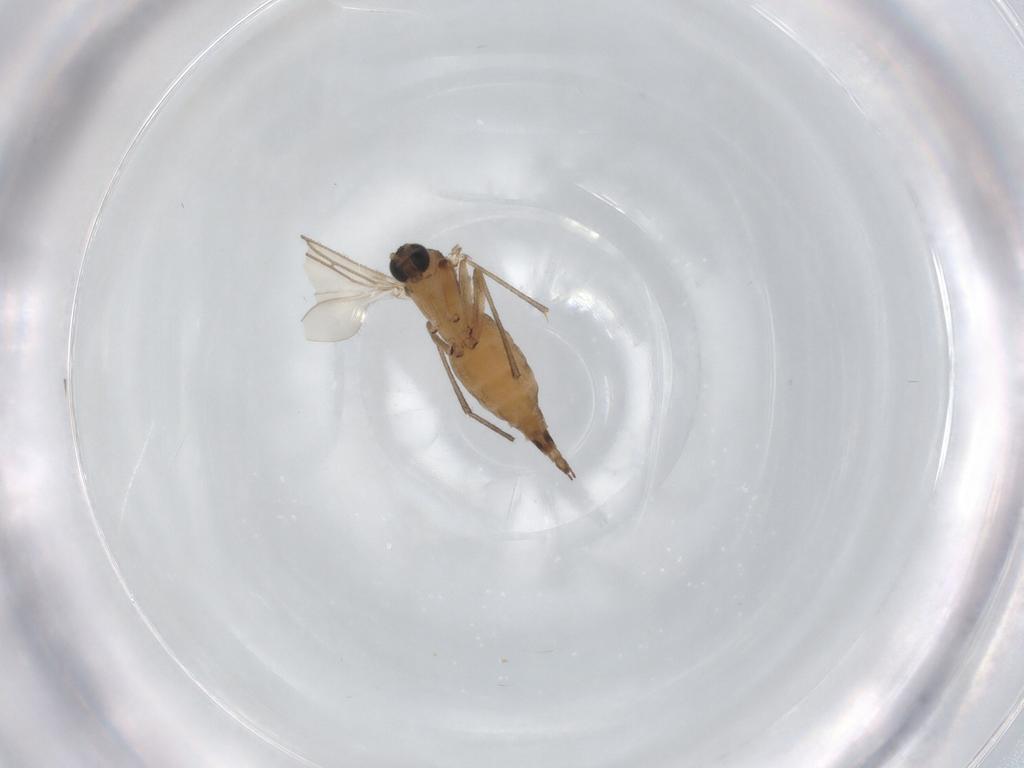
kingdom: Animalia
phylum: Arthropoda
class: Insecta
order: Diptera
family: Sciaridae
